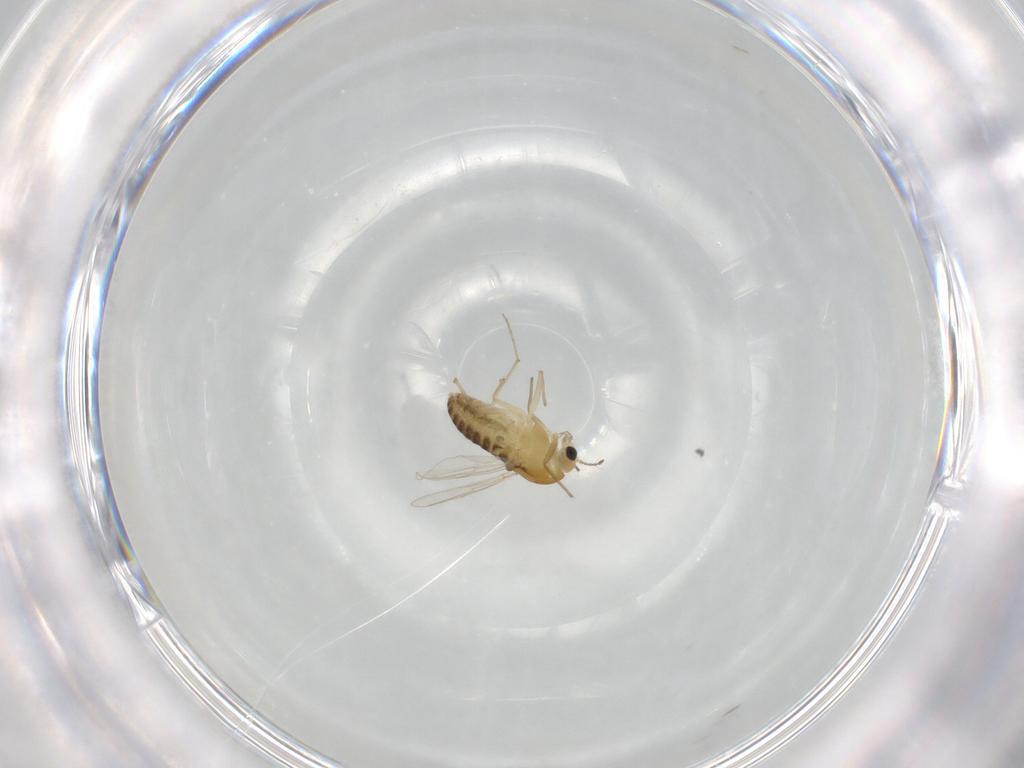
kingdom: Animalia
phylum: Arthropoda
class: Insecta
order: Diptera
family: Chironomidae
